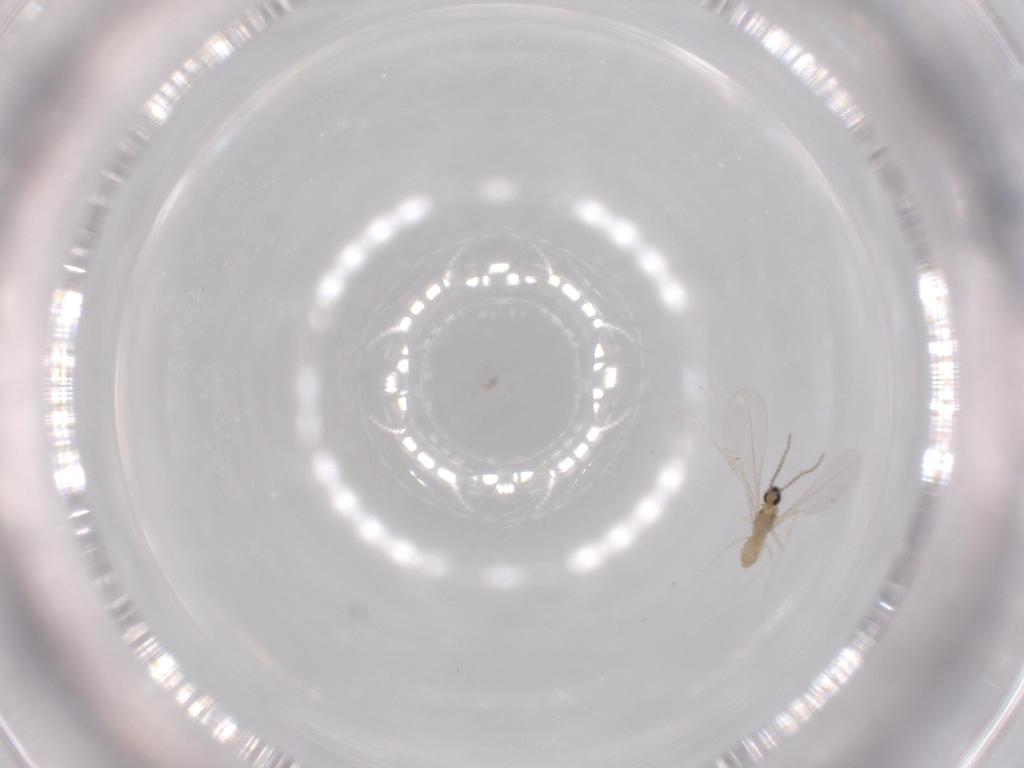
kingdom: Animalia
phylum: Arthropoda
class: Insecta
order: Diptera
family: Cecidomyiidae
